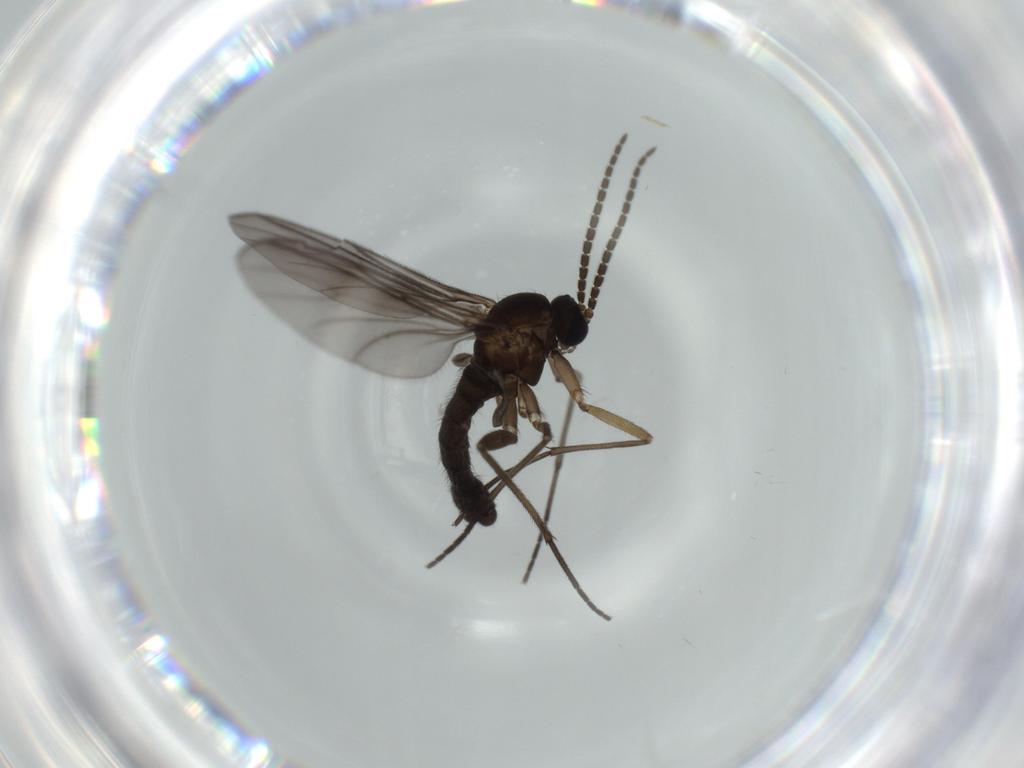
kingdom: Animalia
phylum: Arthropoda
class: Insecta
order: Diptera
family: Sciaridae
